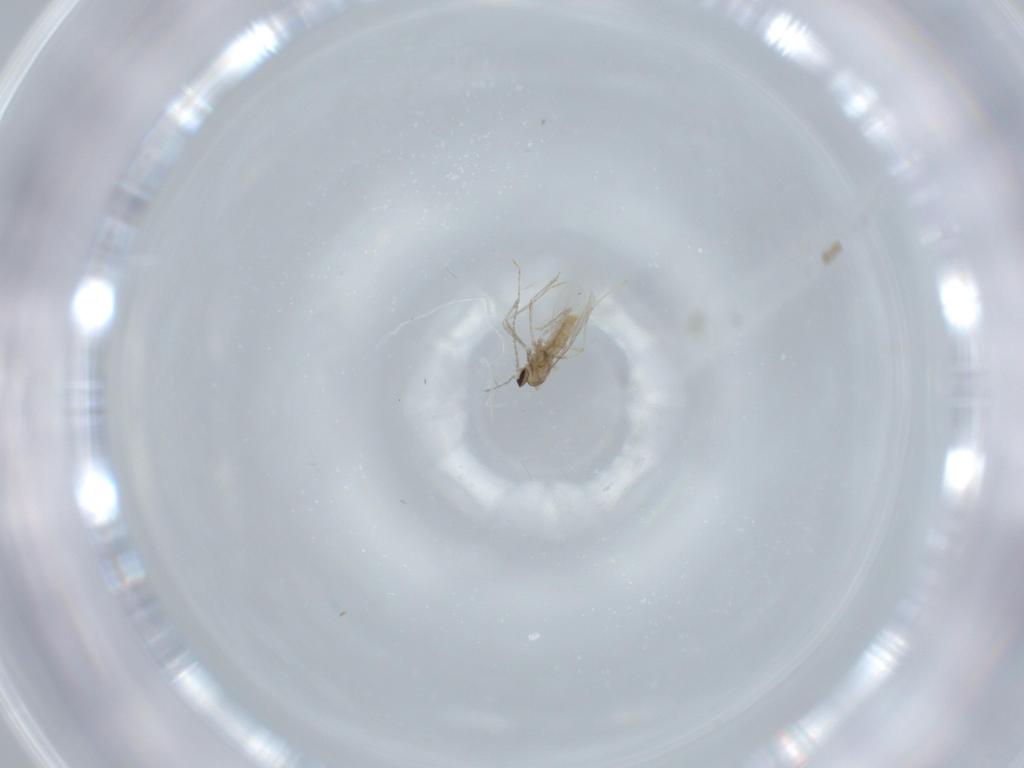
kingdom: Animalia
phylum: Arthropoda
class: Insecta
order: Diptera
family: Cecidomyiidae
